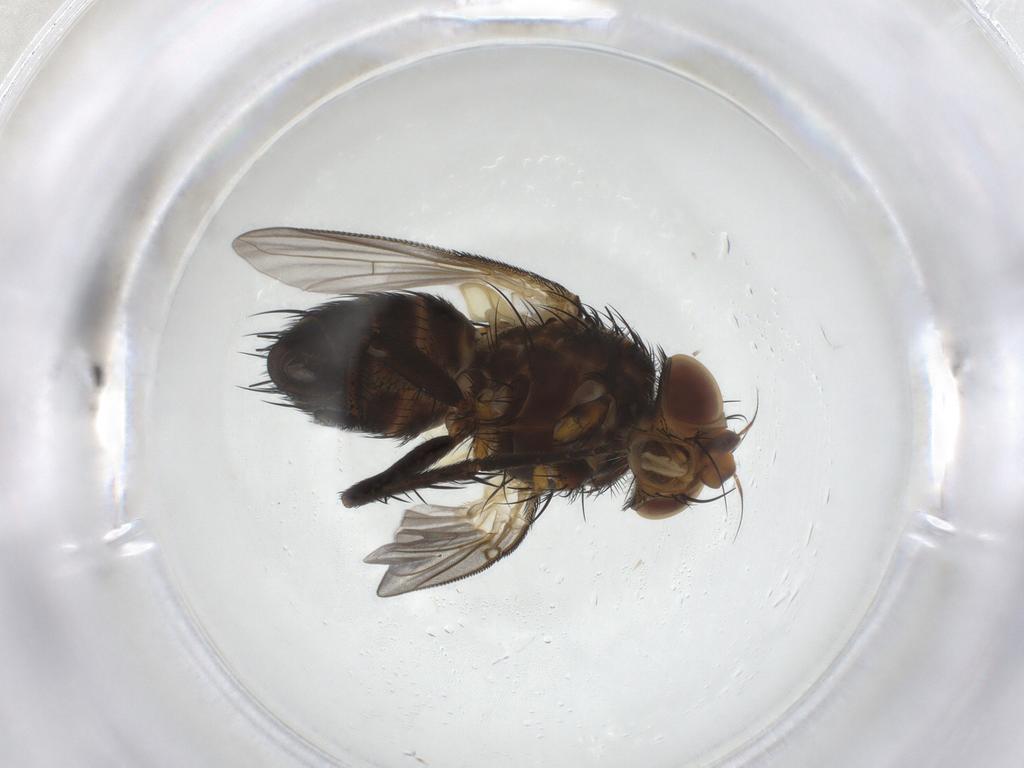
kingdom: Animalia
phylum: Arthropoda
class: Insecta
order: Diptera
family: Tachinidae
